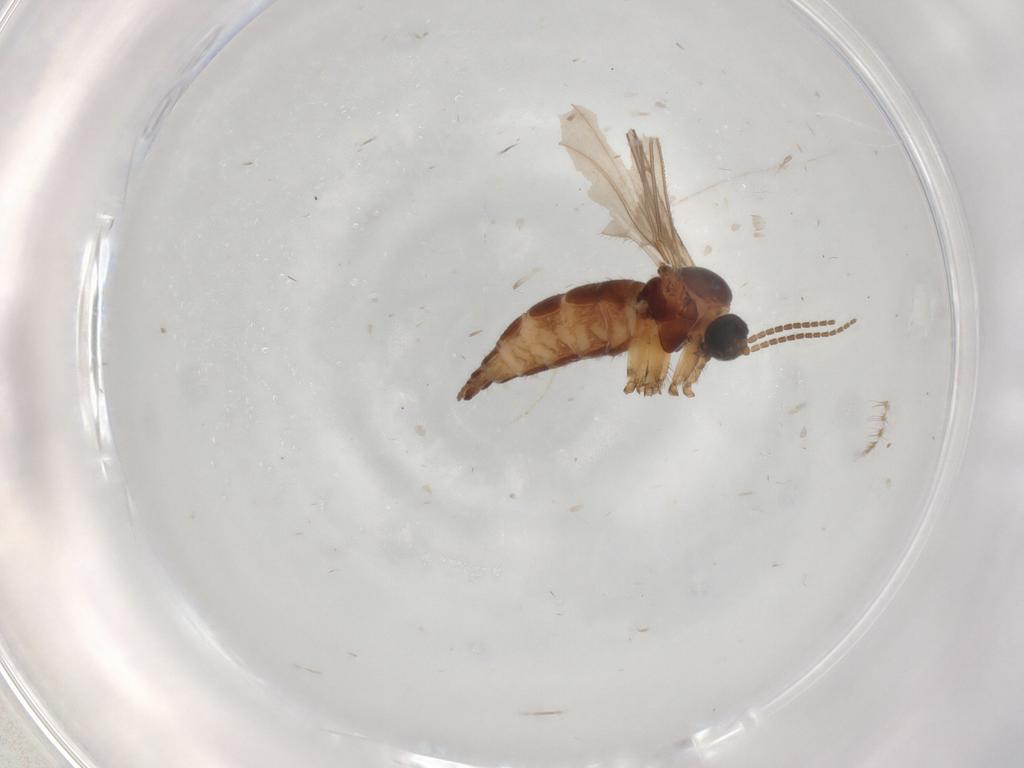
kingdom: Animalia
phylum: Arthropoda
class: Insecta
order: Diptera
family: Sciaridae
